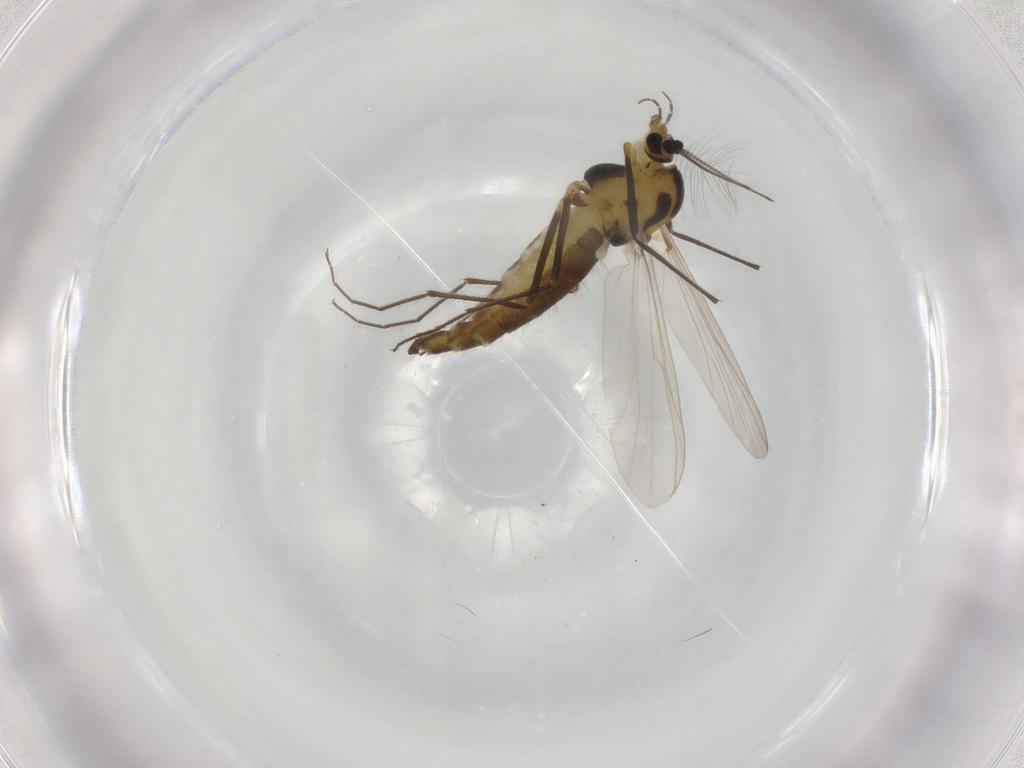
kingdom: Animalia
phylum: Arthropoda
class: Insecta
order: Diptera
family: Chironomidae
